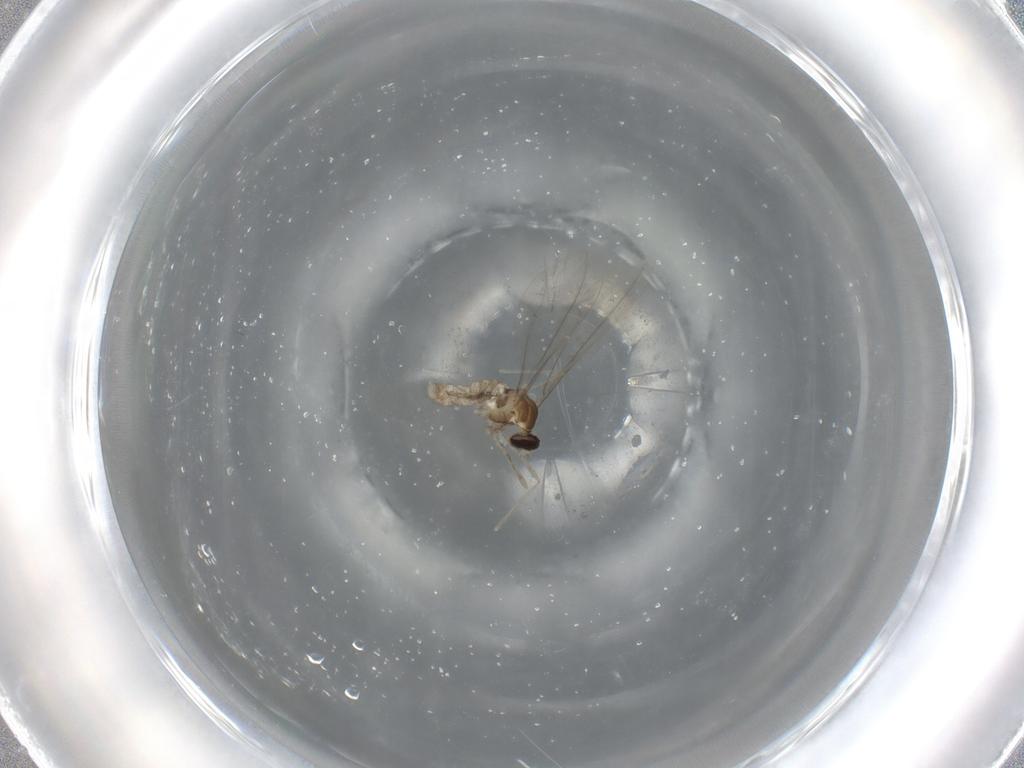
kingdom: Animalia
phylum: Arthropoda
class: Insecta
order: Diptera
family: Cecidomyiidae
